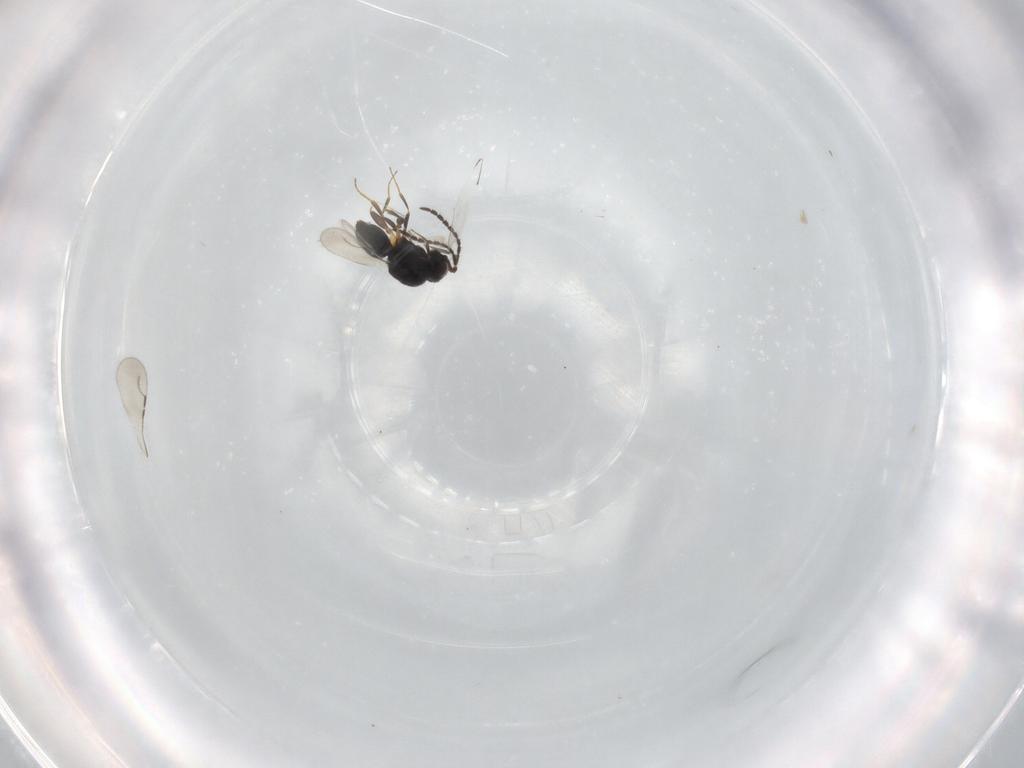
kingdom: Animalia
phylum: Arthropoda
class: Insecta
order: Hymenoptera
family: Ceraphronidae
